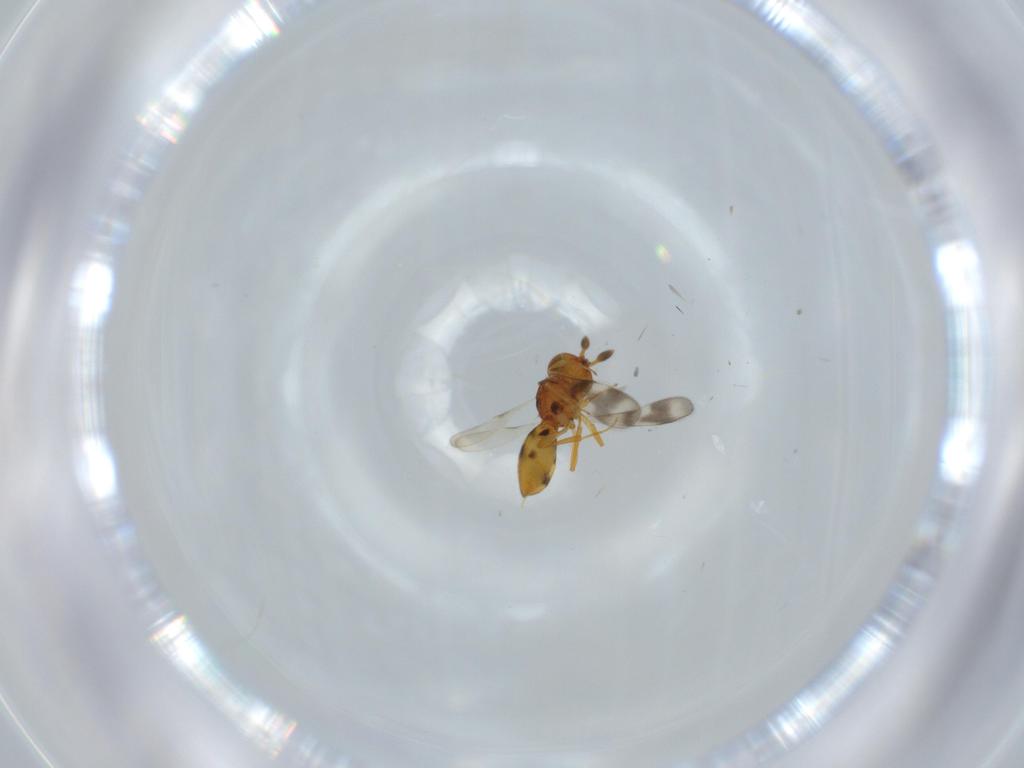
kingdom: Animalia
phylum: Arthropoda
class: Insecta
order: Hymenoptera
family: Scelionidae
